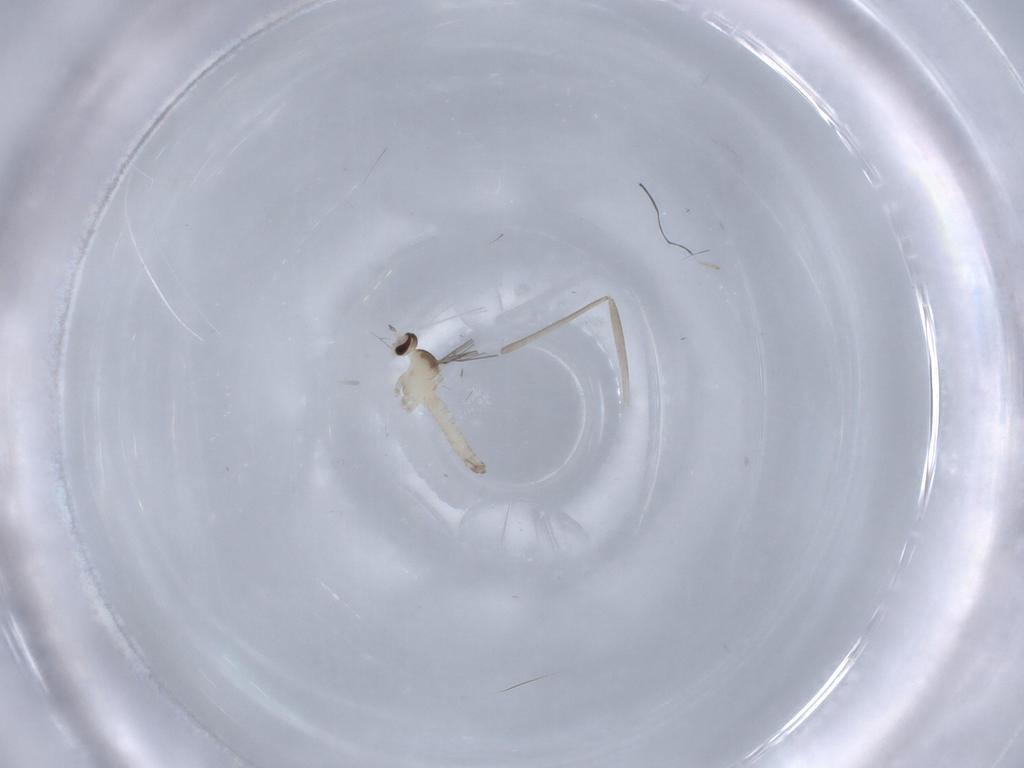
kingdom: Animalia
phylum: Arthropoda
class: Insecta
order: Diptera
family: Cecidomyiidae
